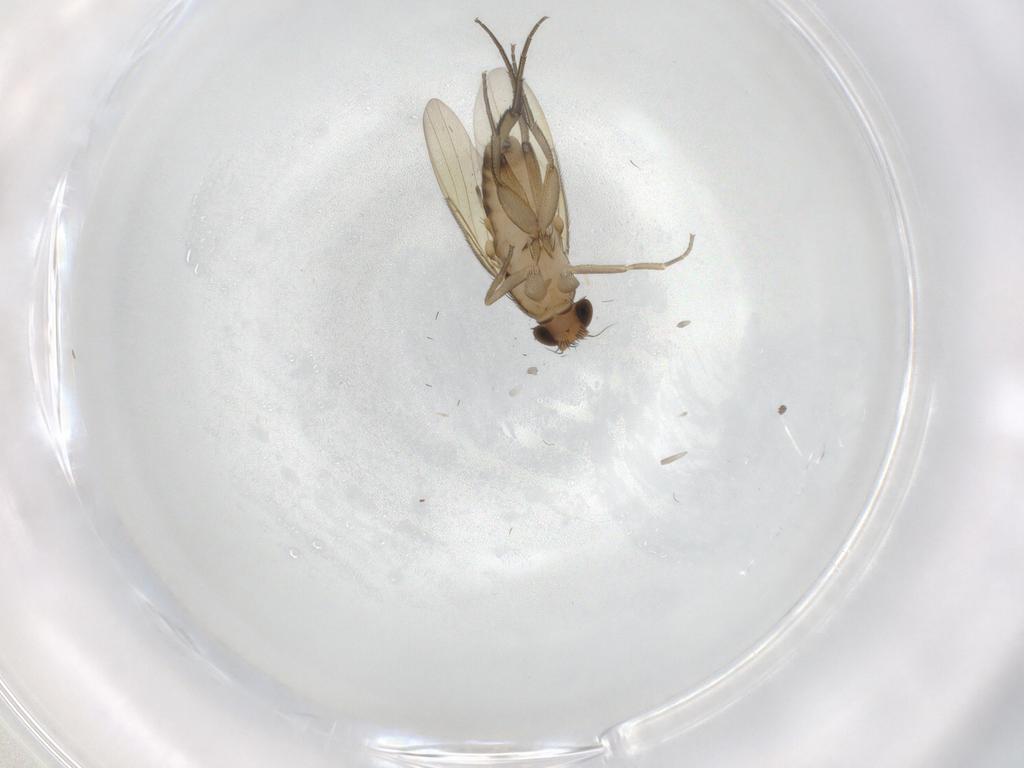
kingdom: Animalia
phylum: Arthropoda
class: Insecta
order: Diptera
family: Phoridae
